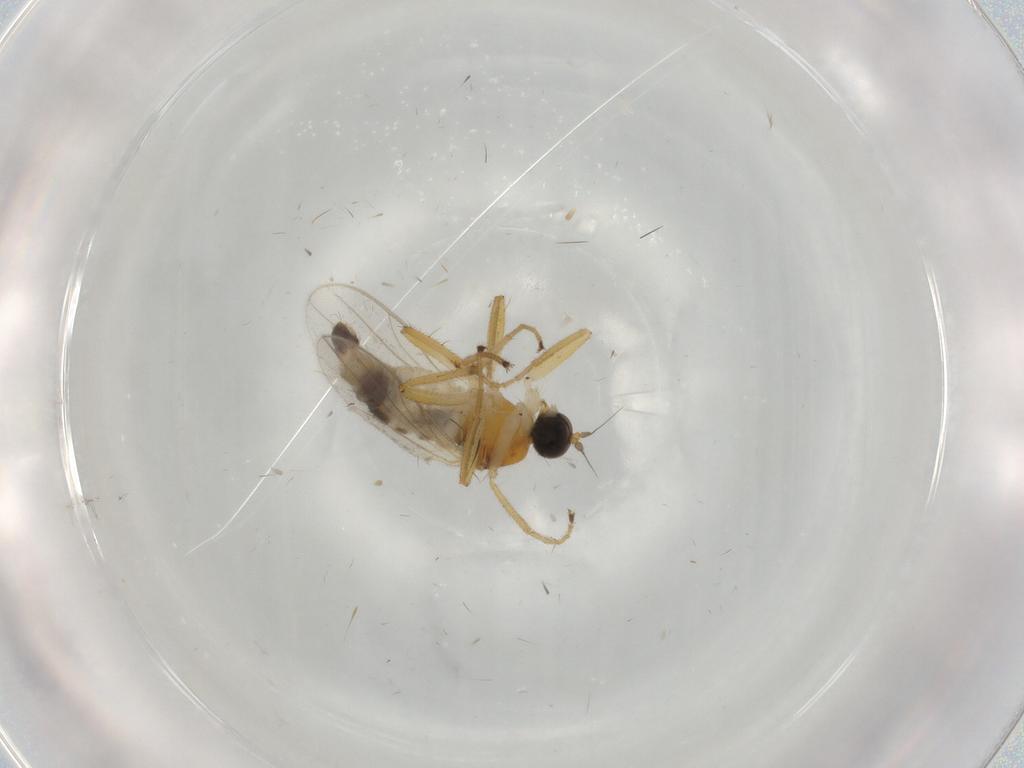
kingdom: Animalia
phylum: Arthropoda
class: Insecta
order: Diptera
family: Hybotidae
